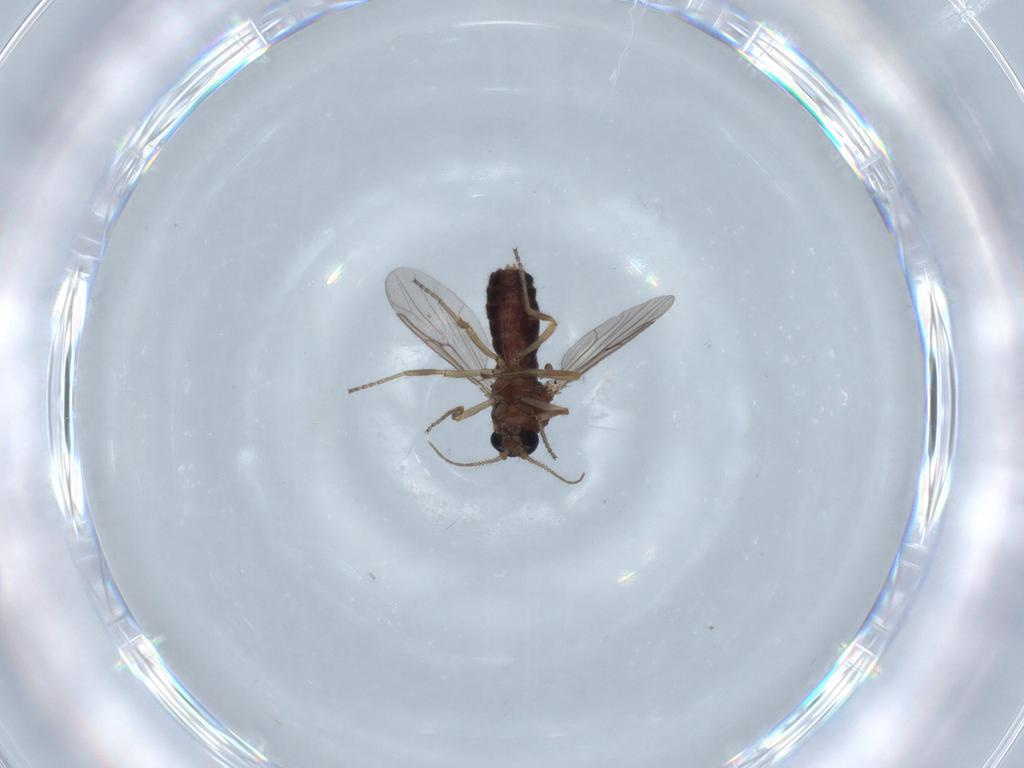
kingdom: Animalia
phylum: Arthropoda
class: Insecta
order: Diptera
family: Ceratopogonidae
